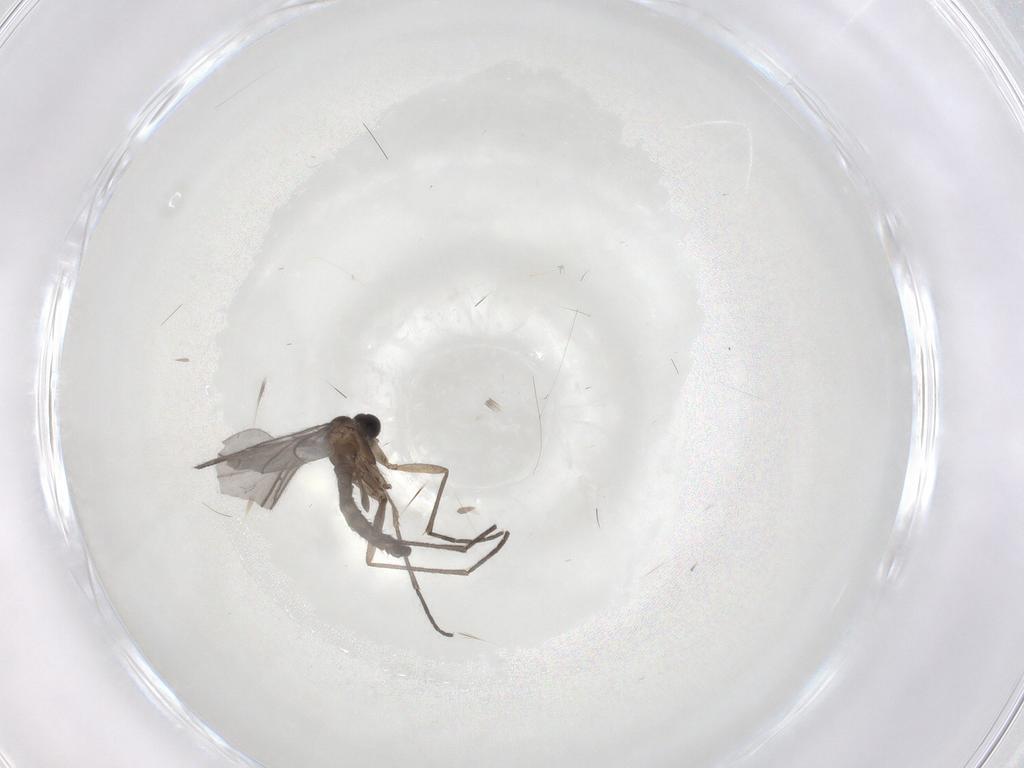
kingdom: Animalia
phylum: Arthropoda
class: Insecta
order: Diptera
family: Sciaridae
